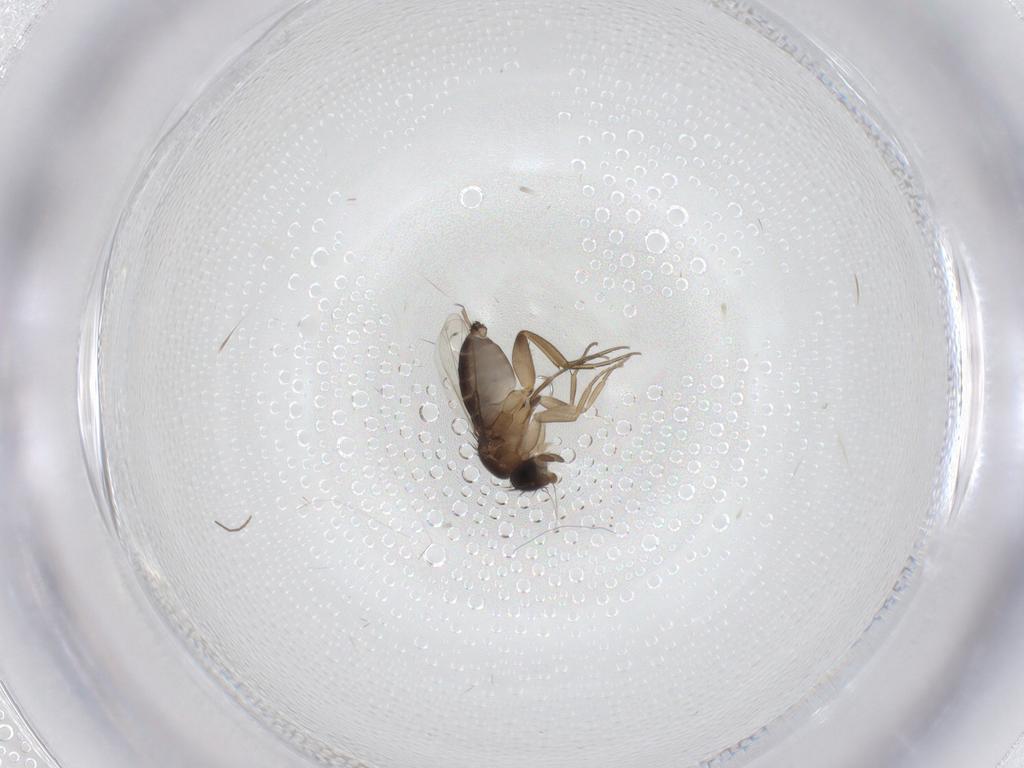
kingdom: Animalia
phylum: Arthropoda
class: Insecta
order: Diptera
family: Phoridae
